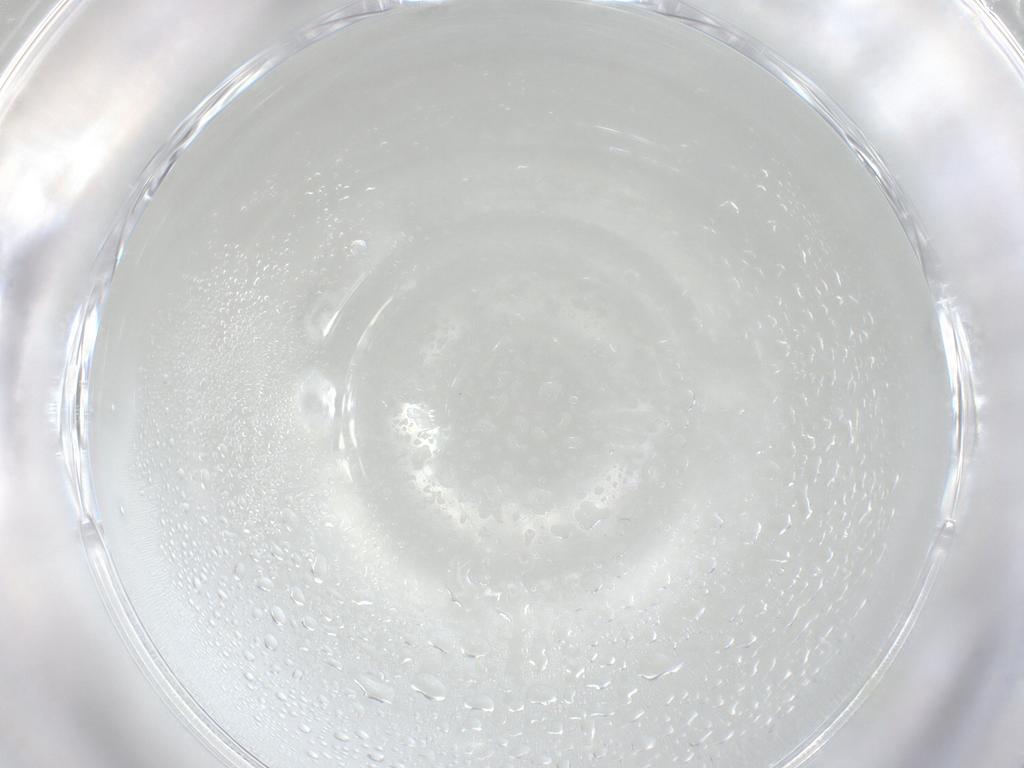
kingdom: Animalia
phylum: Arthropoda
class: Insecta
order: Diptera
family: Cecidomyiidae
